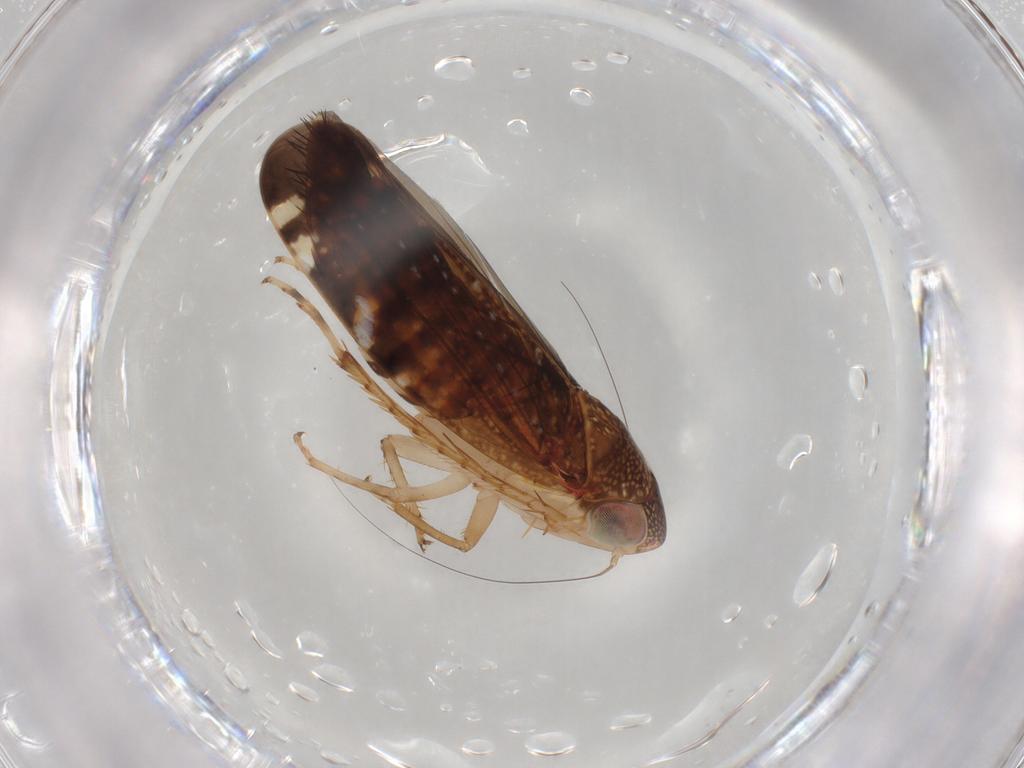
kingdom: Animalia
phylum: Arthropoda
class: Insecta
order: Hemiptera
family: Cicadellidae
